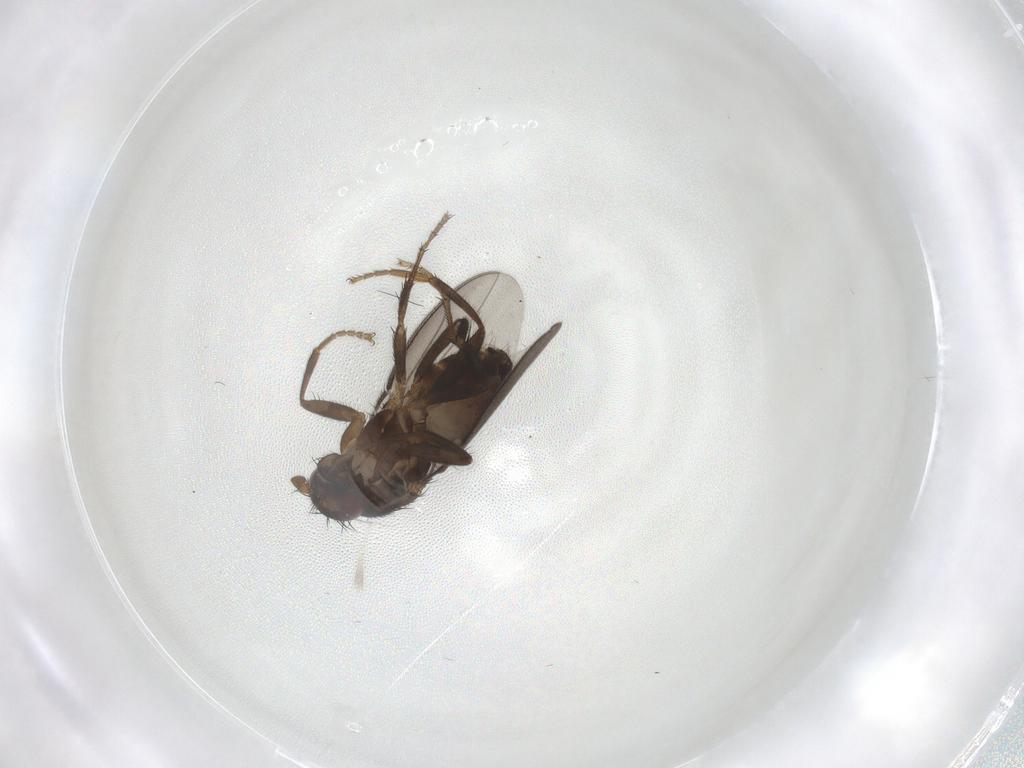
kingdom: Animalia
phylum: Arthropoda
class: Insecta
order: Diptera
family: Sphaeroceridae
